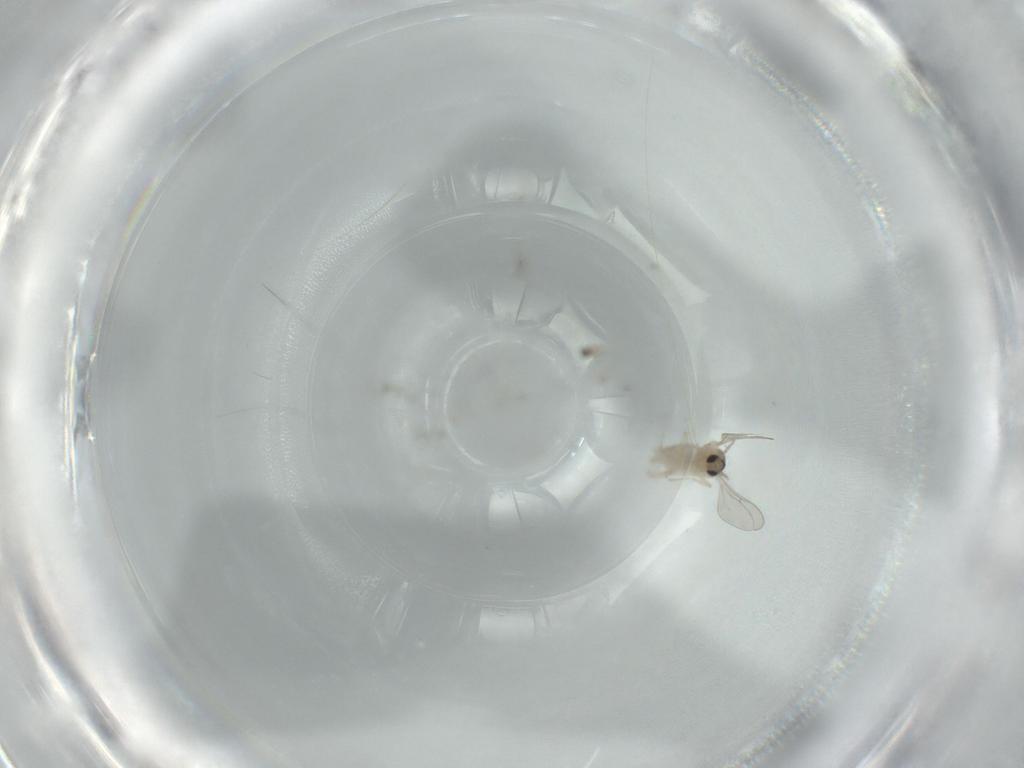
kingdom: Animalia
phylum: Arthropoda
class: Insecta
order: Diptera
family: Cecidomyiidae
